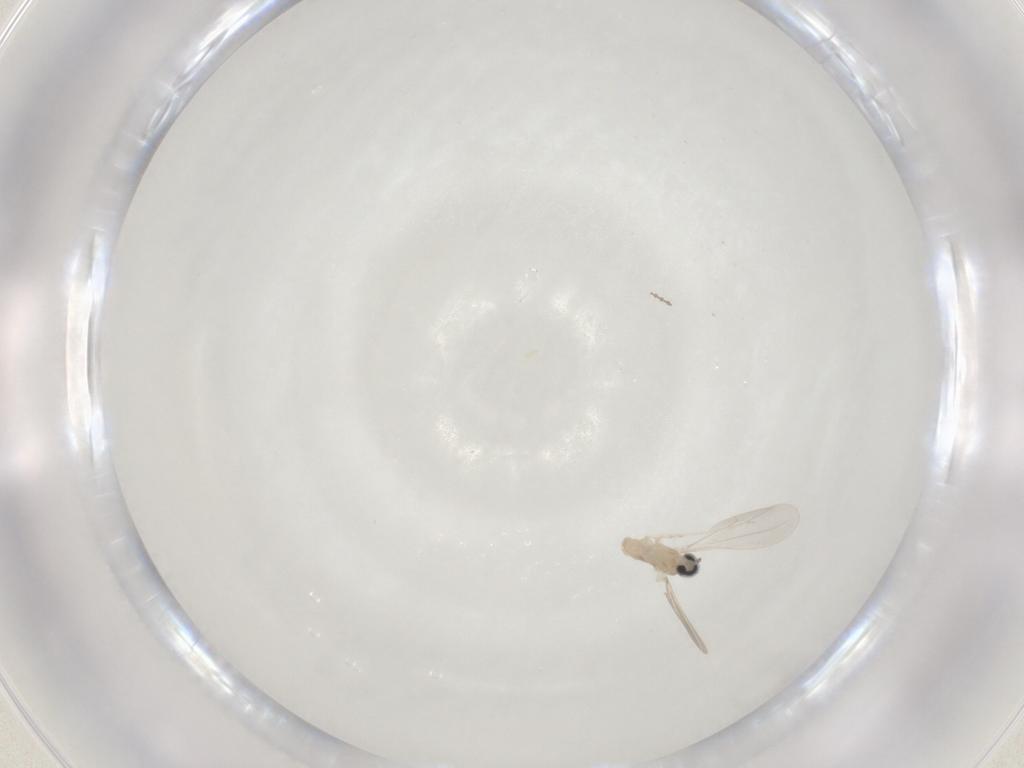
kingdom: Animalia
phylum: Arthropoda
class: Insecta
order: Diptera
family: Cecidomyiidae
